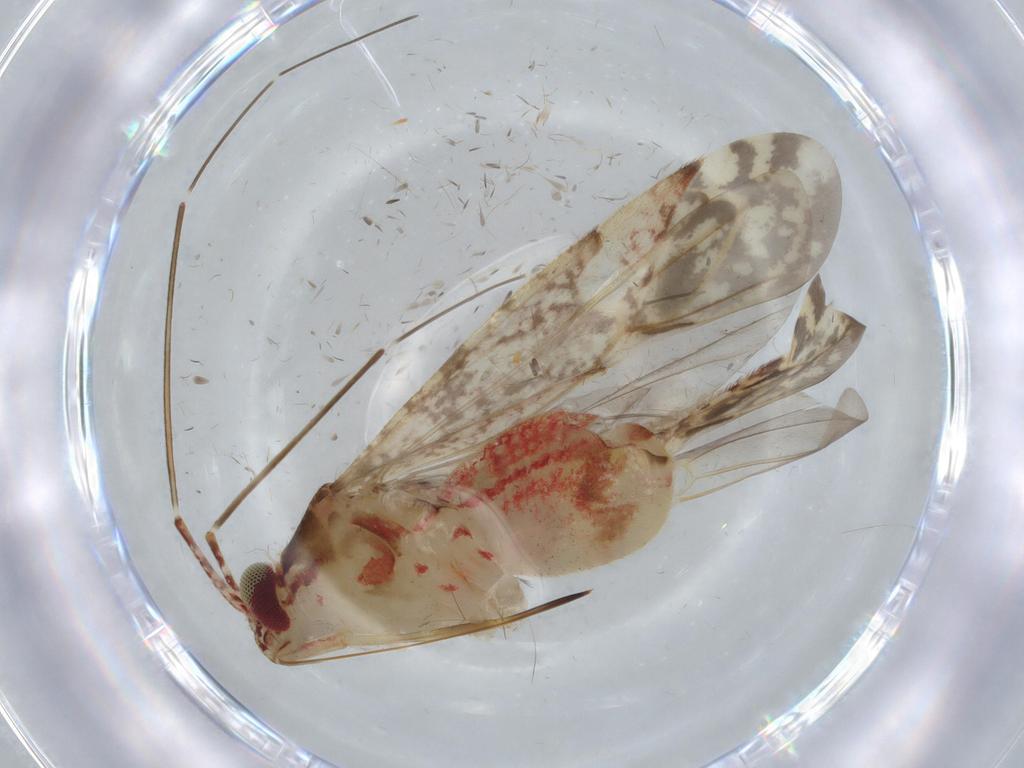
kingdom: Animalia
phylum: Arthropoda
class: Insecta
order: Hemiptera
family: Miridae
